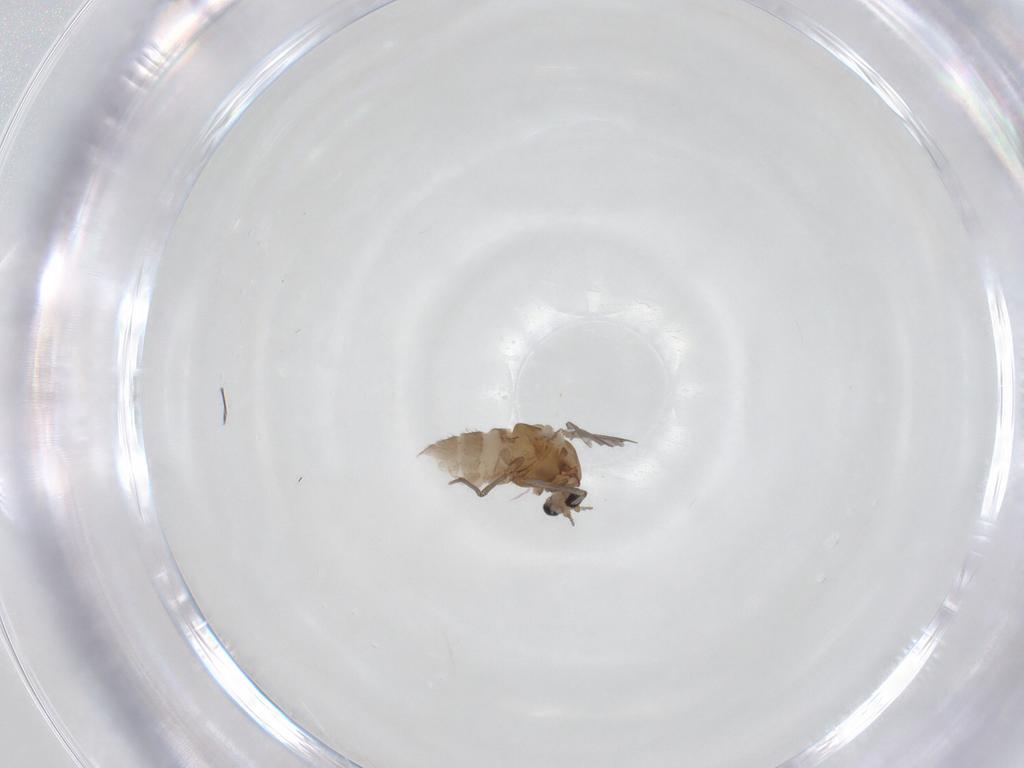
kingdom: Animalia
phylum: Arthropoda
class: Insecta
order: Diptera
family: Chironomidae
